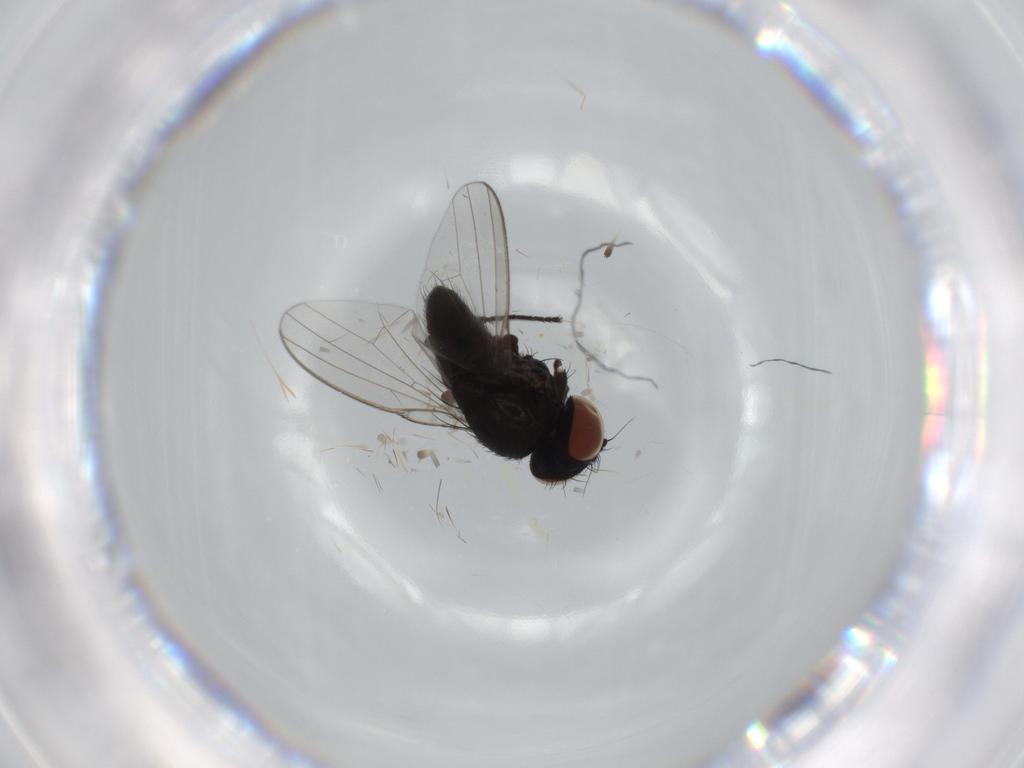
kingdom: Animalia
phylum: Arthropoda
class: Insecta
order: Diptera
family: Milichiidae
